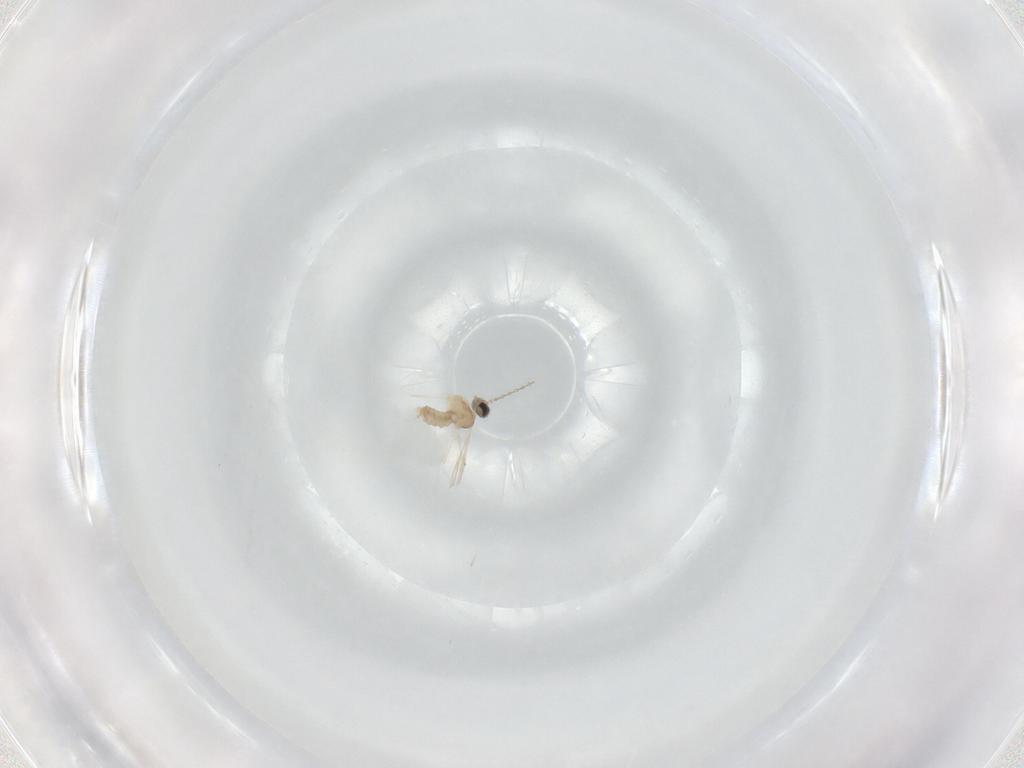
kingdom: Animalia
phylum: Arthropoda
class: Insecta
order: Diptera
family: Cecidomyiidae
